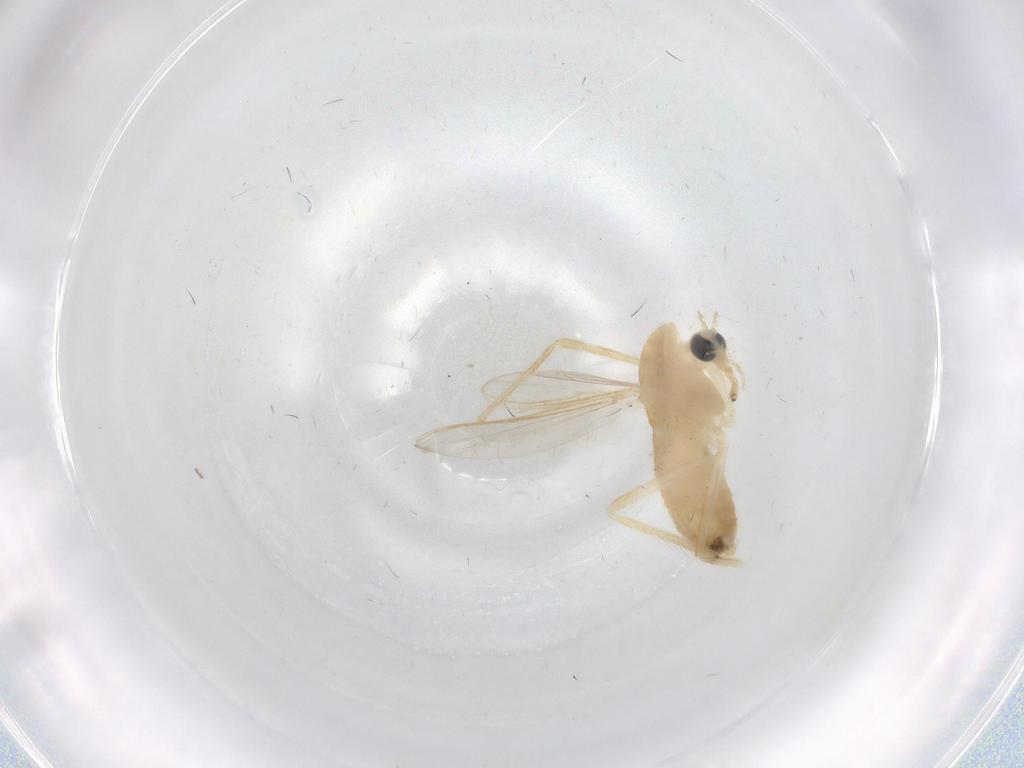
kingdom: Animalia
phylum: Arthropoda
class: Insecta
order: Diptera
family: Chironomidae
